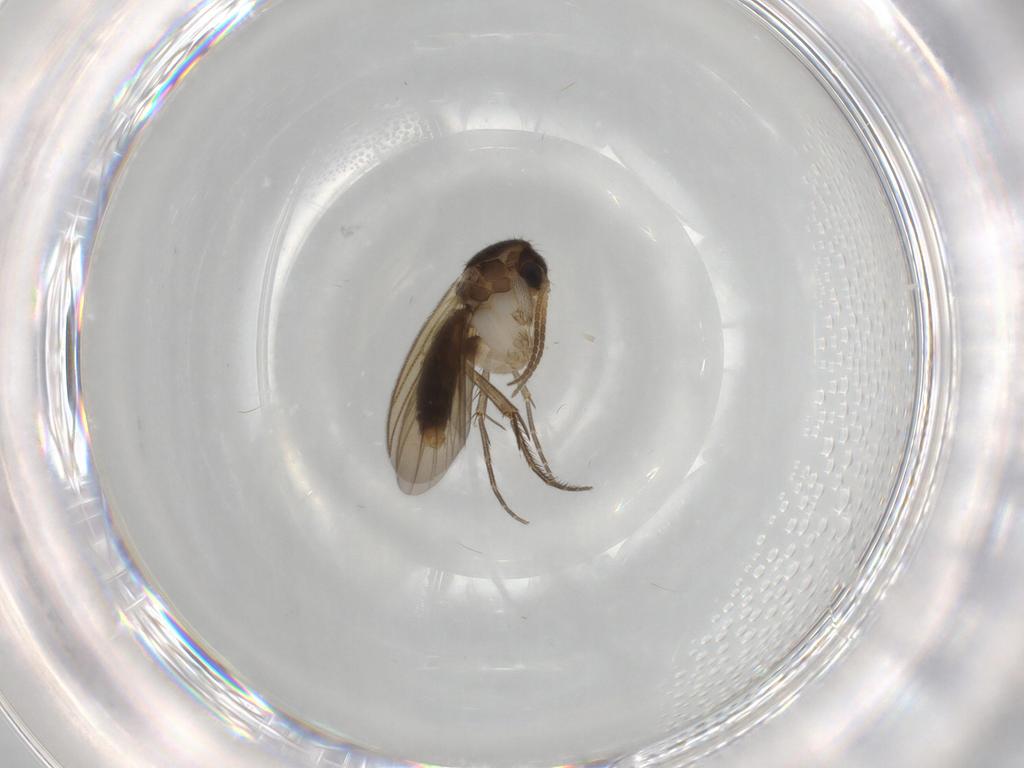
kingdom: Animalia
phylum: Arthropoda
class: Insecta
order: Diptera
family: Mycetophilidae
